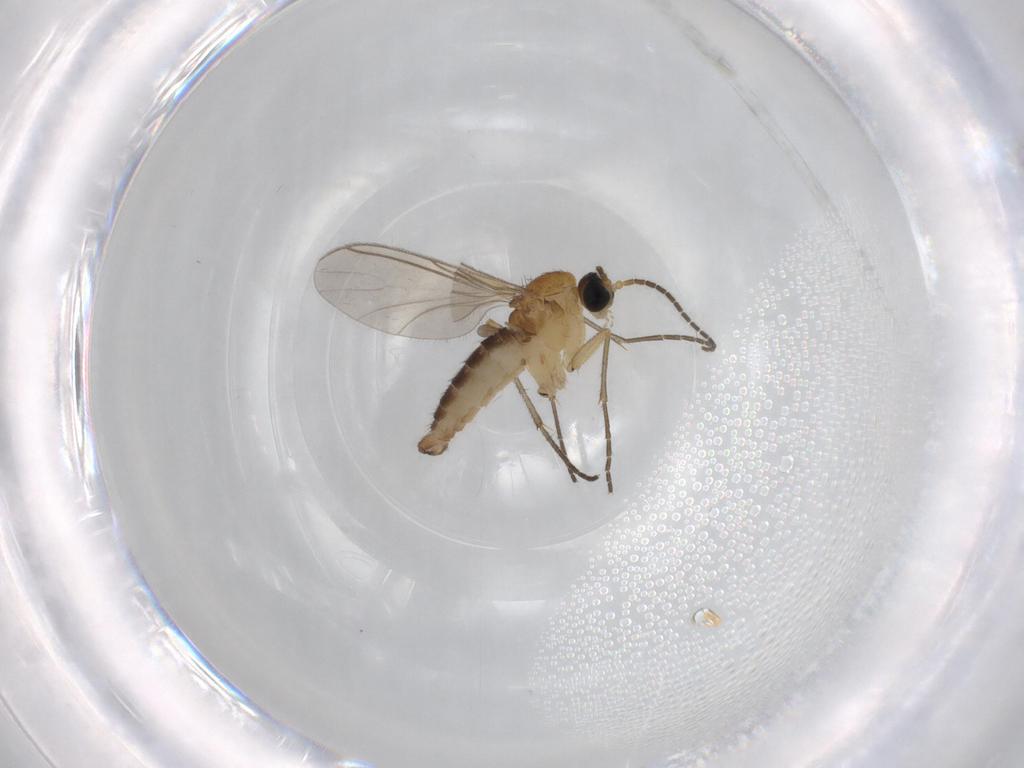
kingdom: Animalia
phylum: Arthropoda
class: Insecta
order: Diptera
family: Sciaridae
